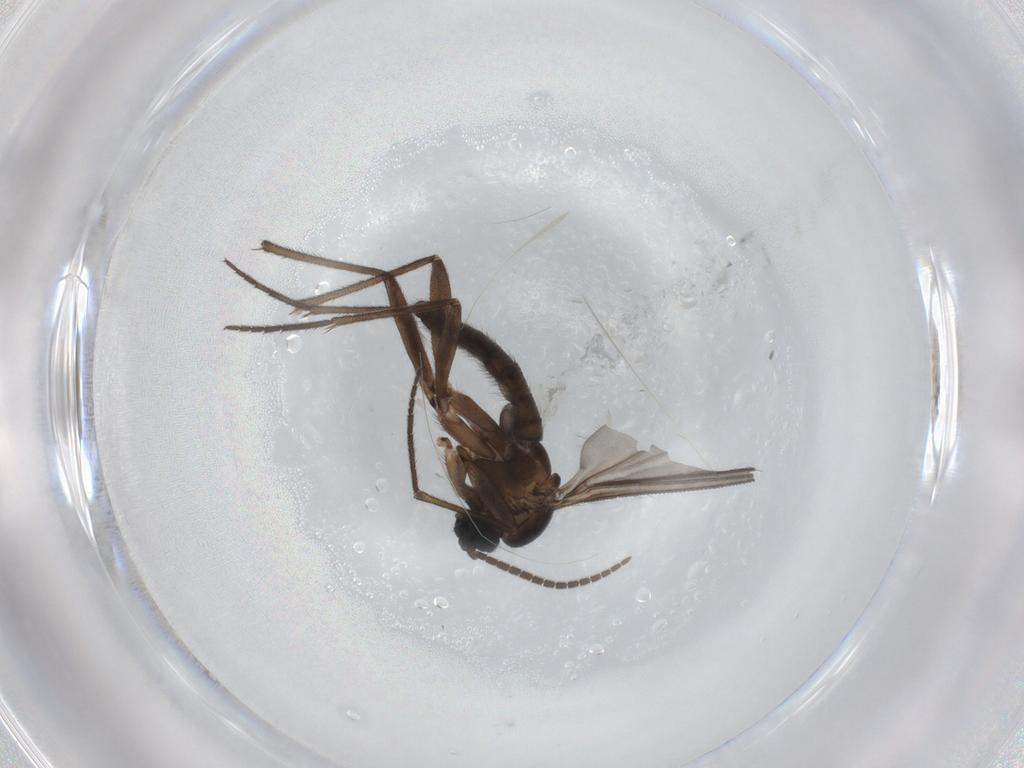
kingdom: Animalia
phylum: Arthropoda
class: Insecta
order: Diptera
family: Sciaridae
